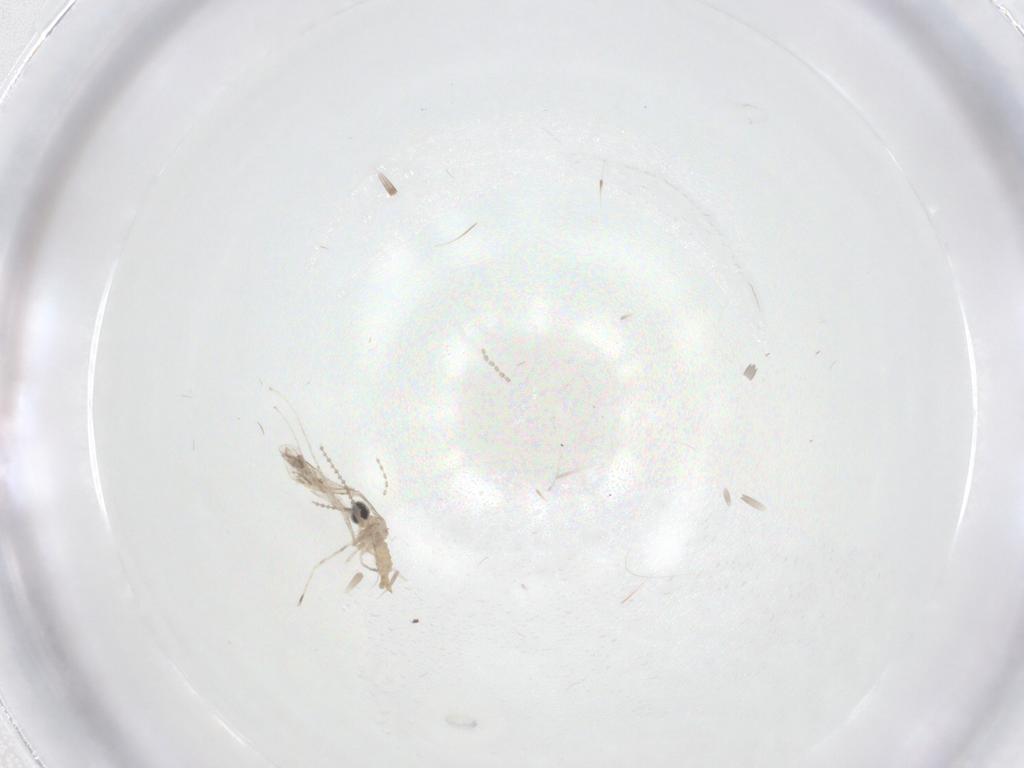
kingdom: Animalia
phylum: Arthropoda
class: Insecta
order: Diptera
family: Cecidomyiidae
